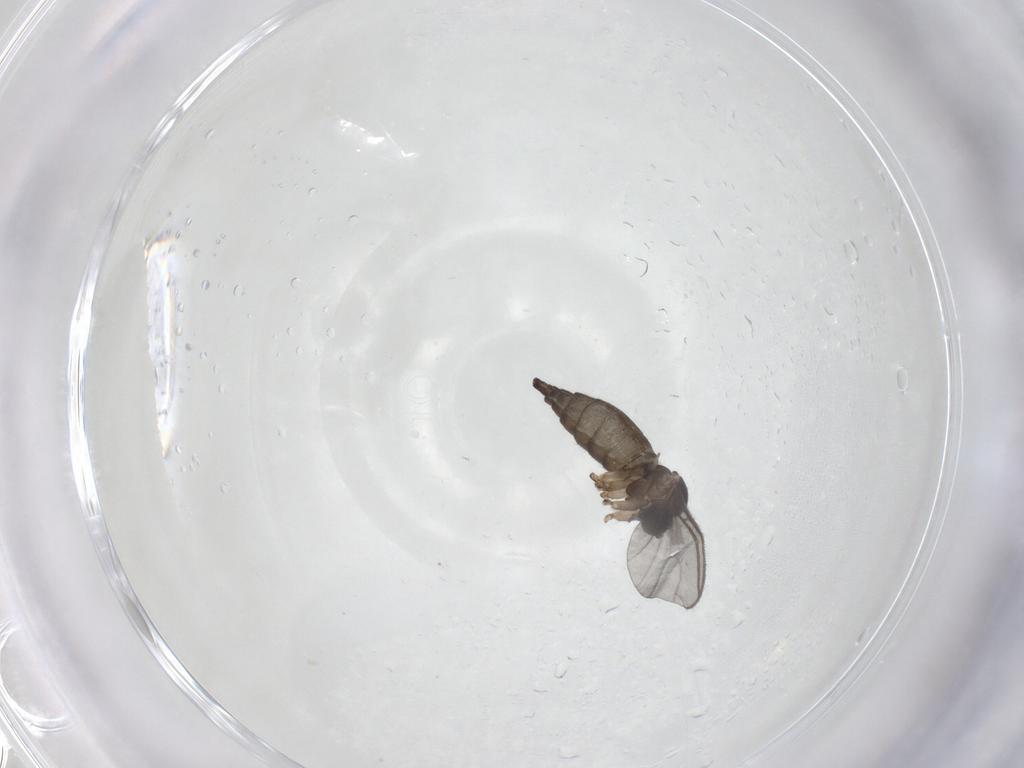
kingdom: Animalia
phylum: Arthropoda
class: Insecta
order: Diptera
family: Sciaridae
